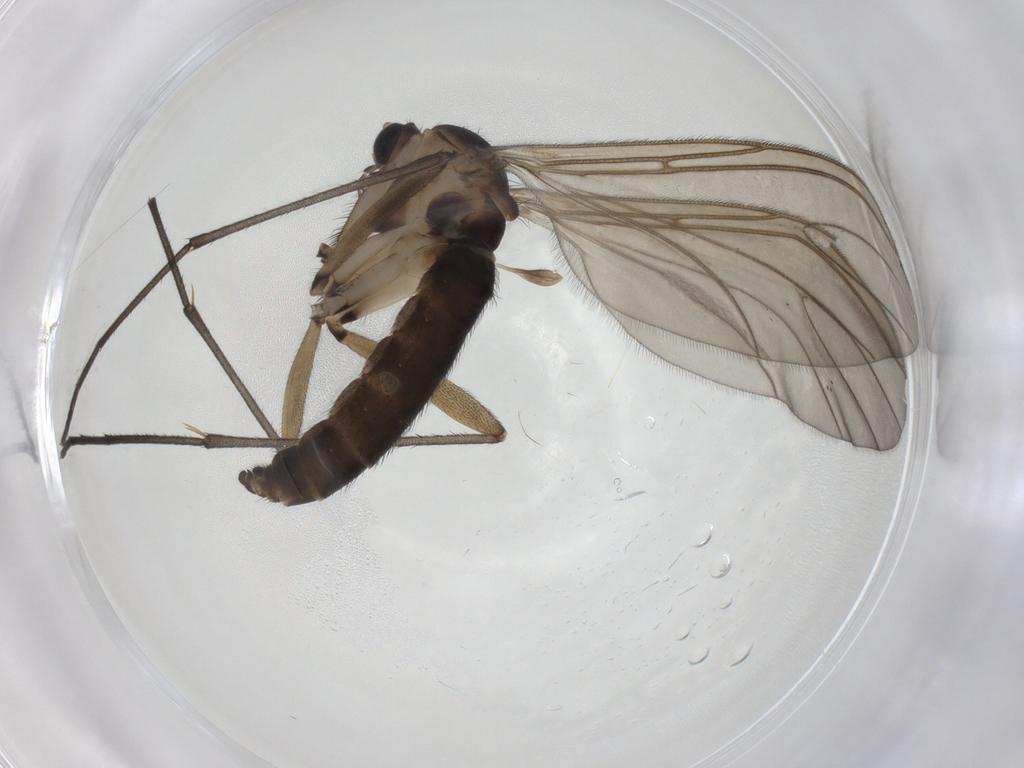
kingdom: Animalia
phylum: Arthropoda
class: Insecta
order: Diptera
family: Sciaridae
